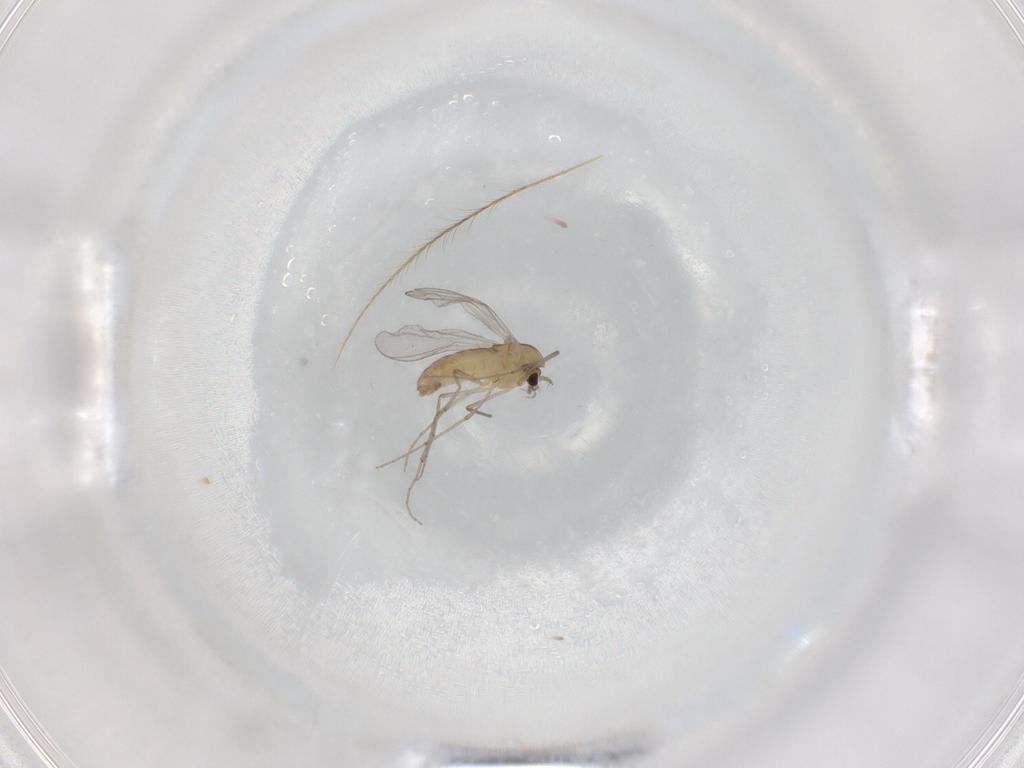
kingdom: Animalia
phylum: Arthropoda
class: Insecta
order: Diptera
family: Chironomidae
